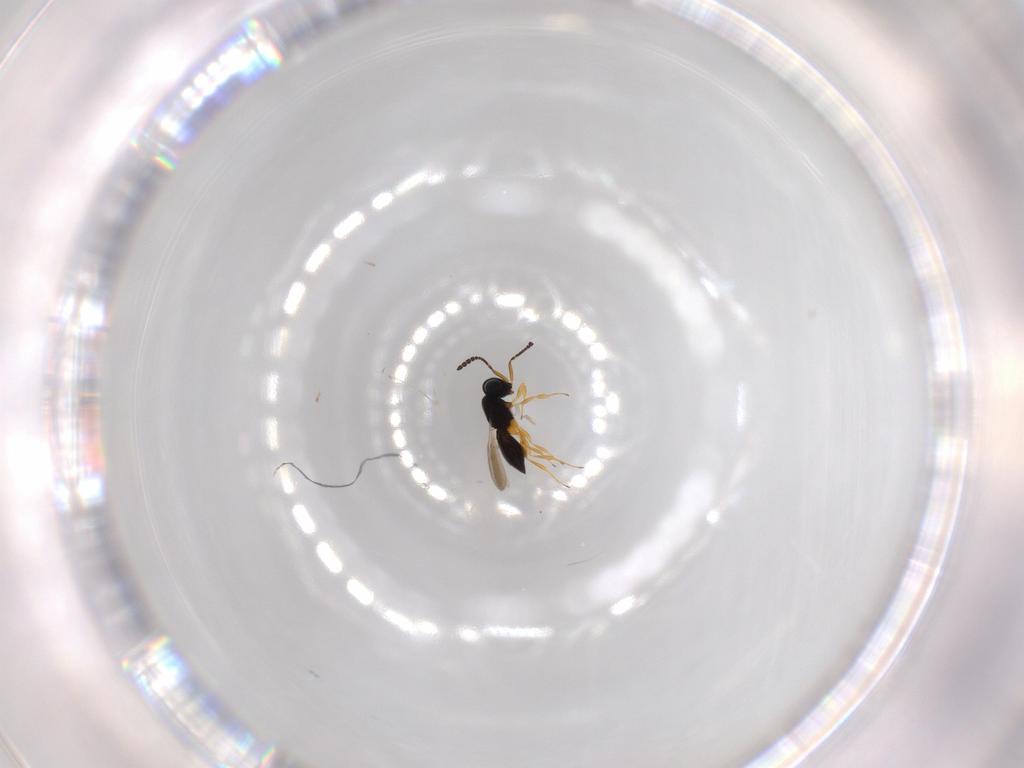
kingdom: Animalia
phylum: Arthropoda
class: Insecta
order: Hymenoptera
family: Scelionidae
